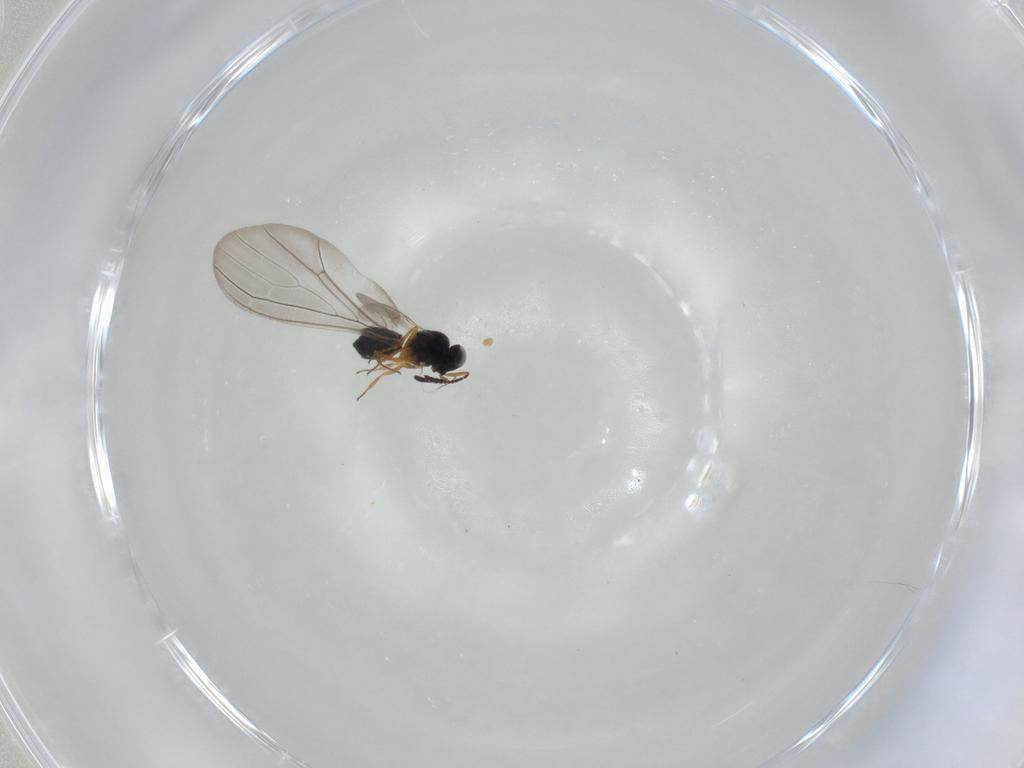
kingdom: Animalia
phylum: Arthropoda
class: Insecta
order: Hymenoptera
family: Scelionidae
